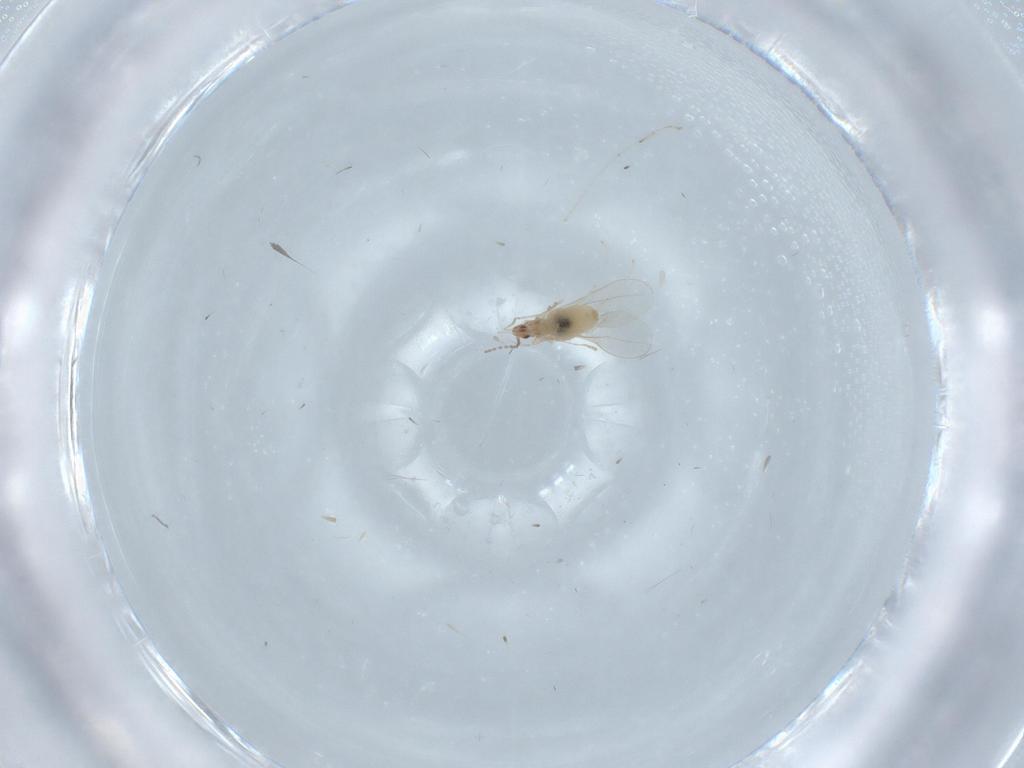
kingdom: Animalia
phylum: Arthropoda
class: Insecta
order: Diptera
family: Cecidomyiidae
